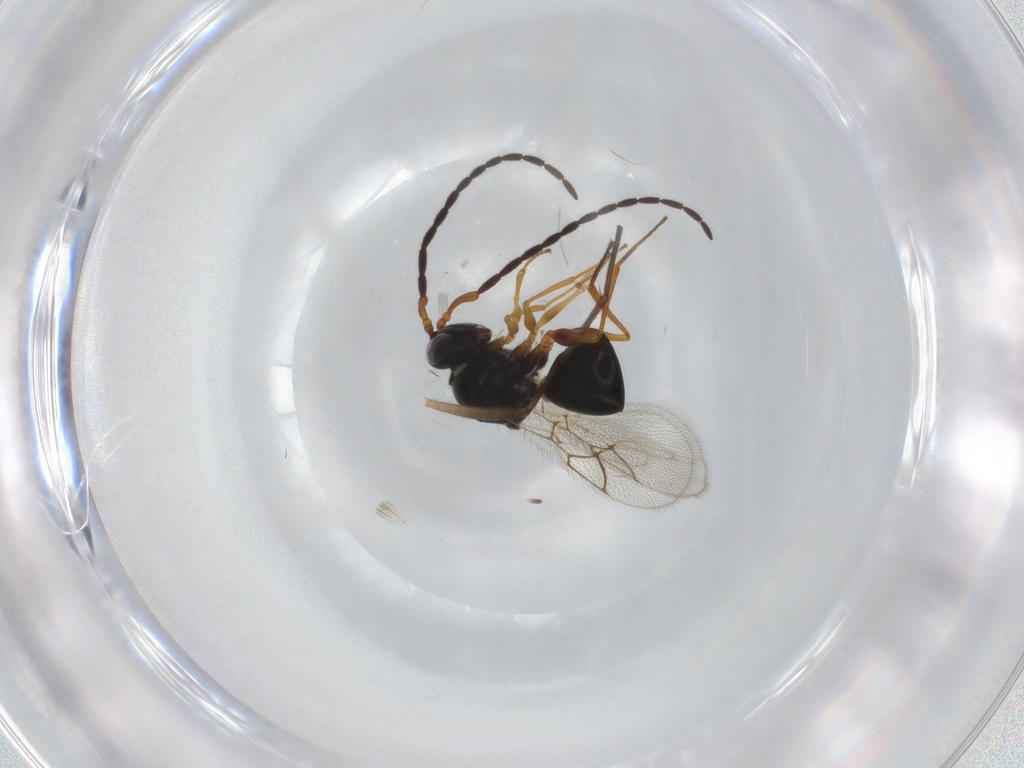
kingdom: Animalia
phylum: Arthropoda
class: Insecta
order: Hymenoptera
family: Figitidae
